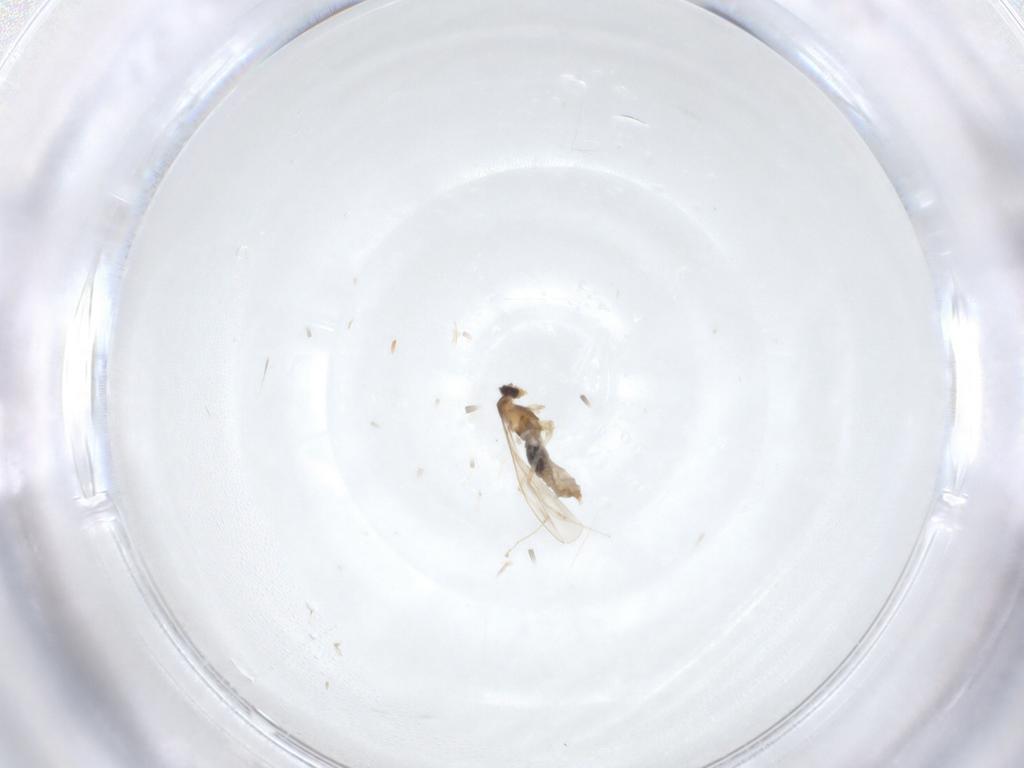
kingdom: Animalia
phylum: Arthropoda
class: Insecta
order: Diptera
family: Cecidomyiidae
